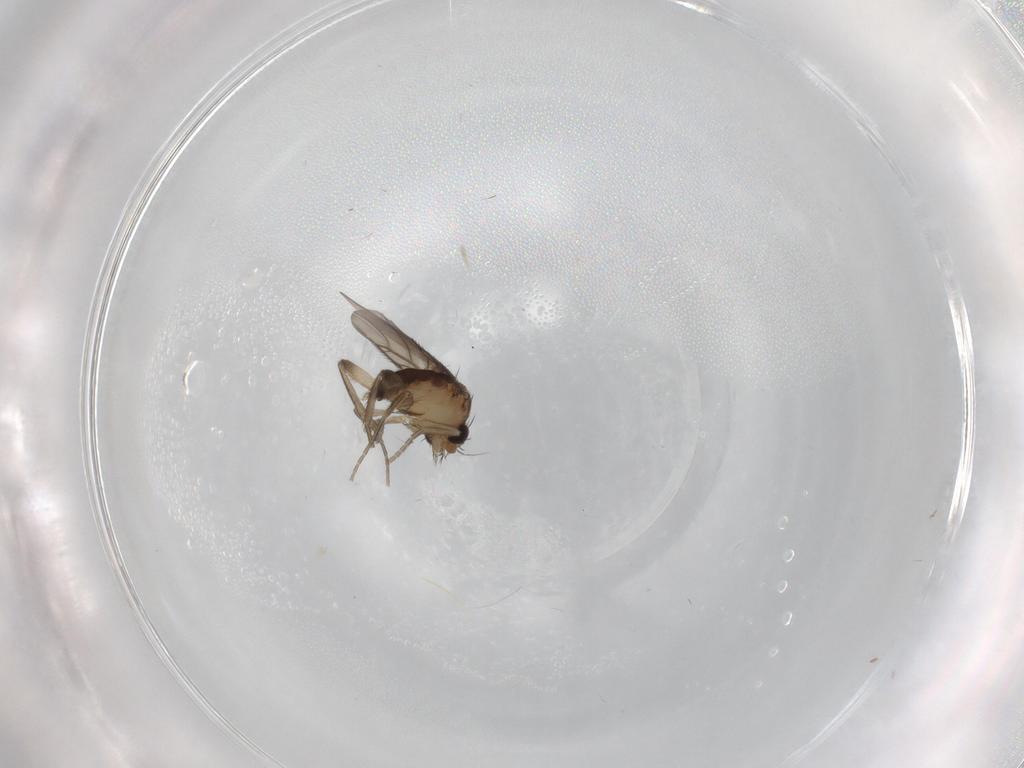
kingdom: Animalia
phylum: Arthropoda
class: Insecta
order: Diptera
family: Phoridae
